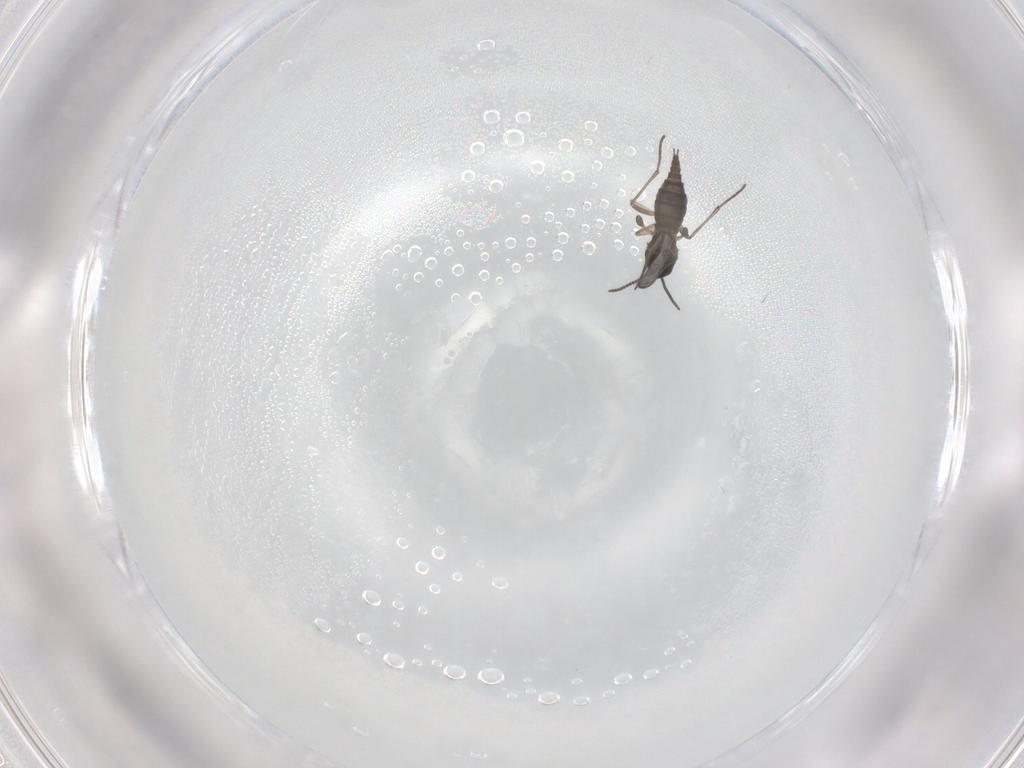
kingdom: Animalia
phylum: Arthropoda
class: Insecta
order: Diptera
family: Sciaridae
